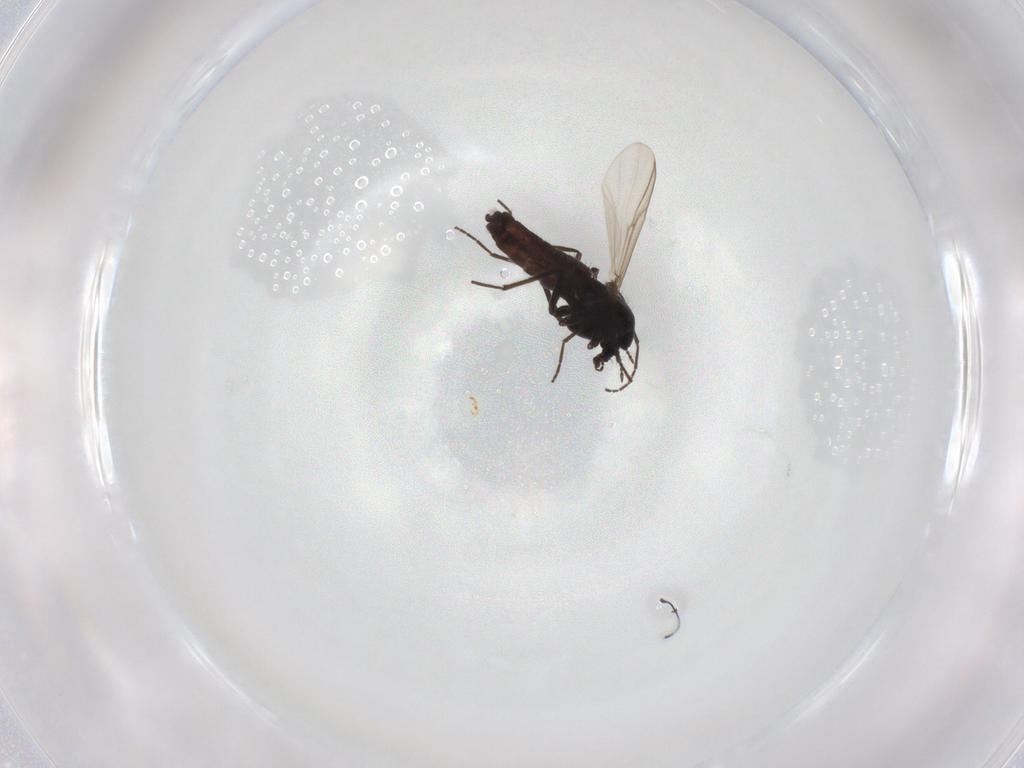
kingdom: Animalia
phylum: Arthropoda
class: Insecta
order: Diptera
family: Chironomidae
